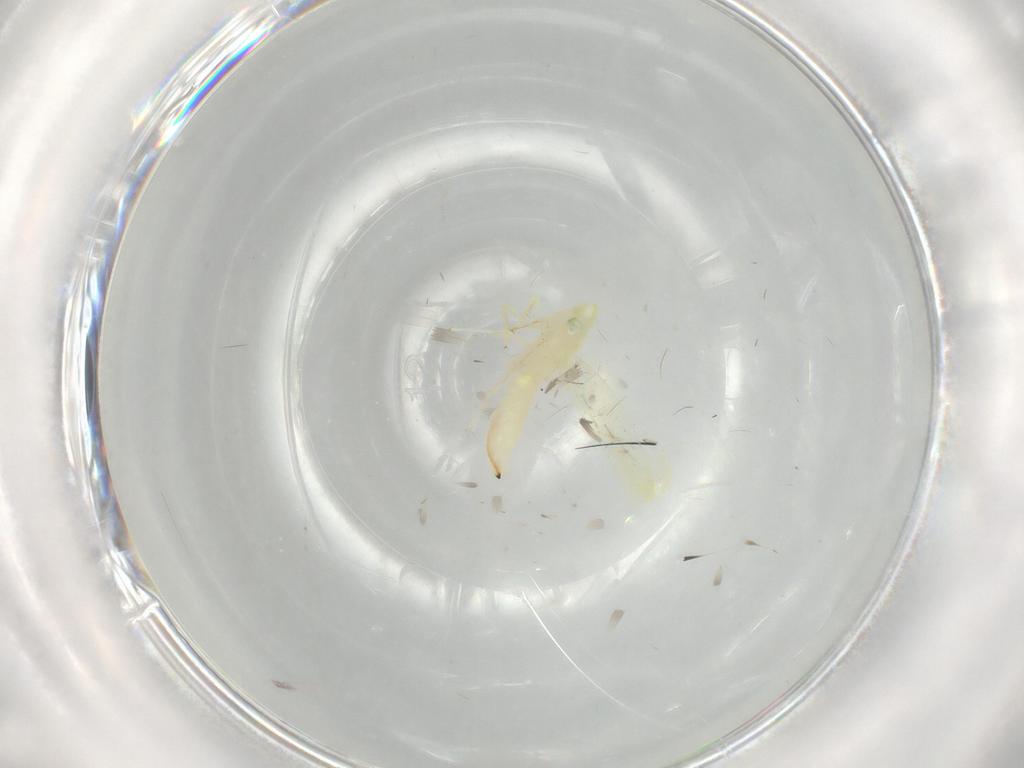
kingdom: Animalia
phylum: Arthropoda
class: Insecta
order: Hemiptera
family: Cicadellidae
